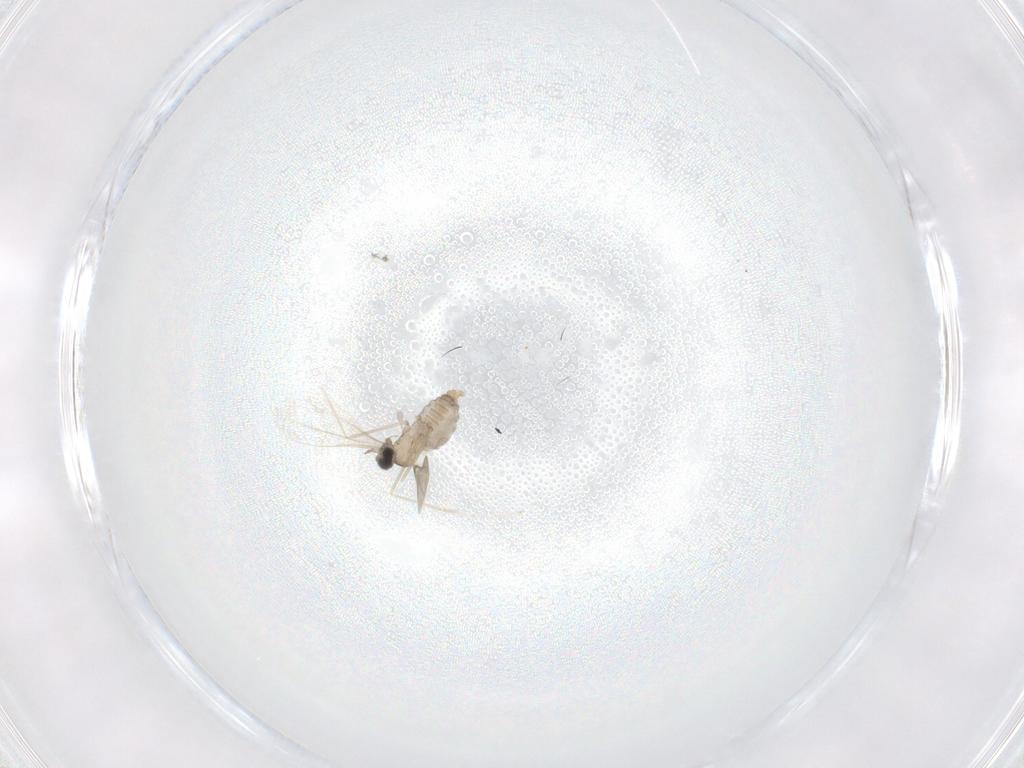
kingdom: Animalia
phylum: Arthropoda
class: Insecta
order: Diptera
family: Cecidomyiidae
